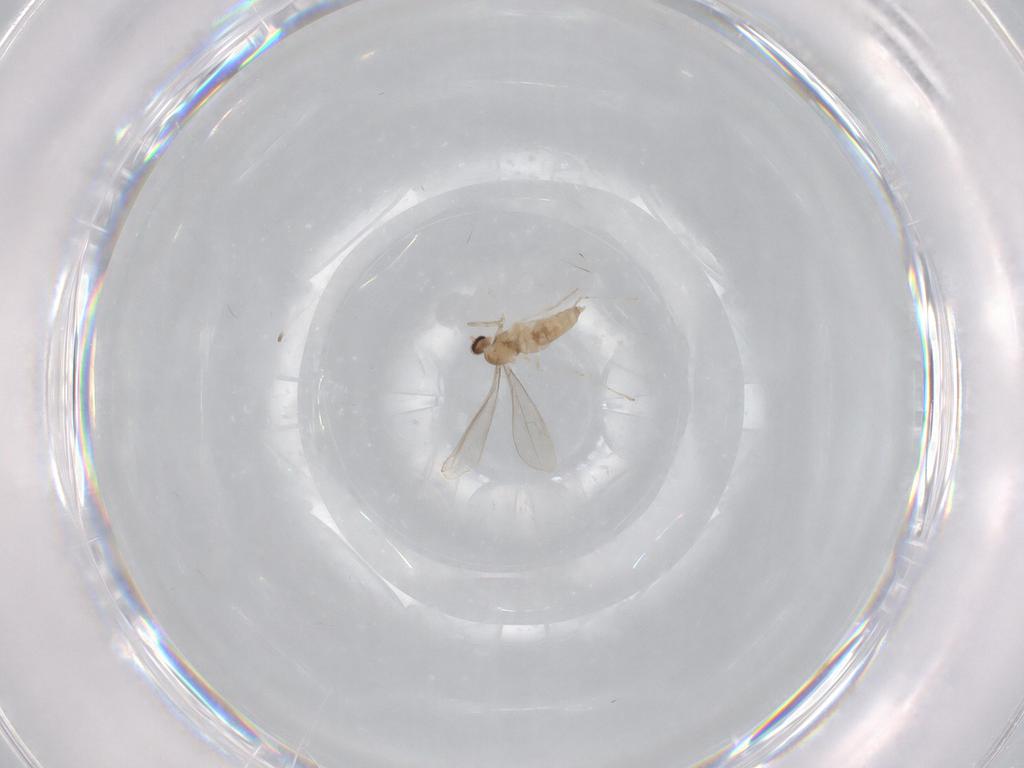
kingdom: Animalia
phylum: Arthropoda
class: Insecta
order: Diptera
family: Cecidomyiidae
